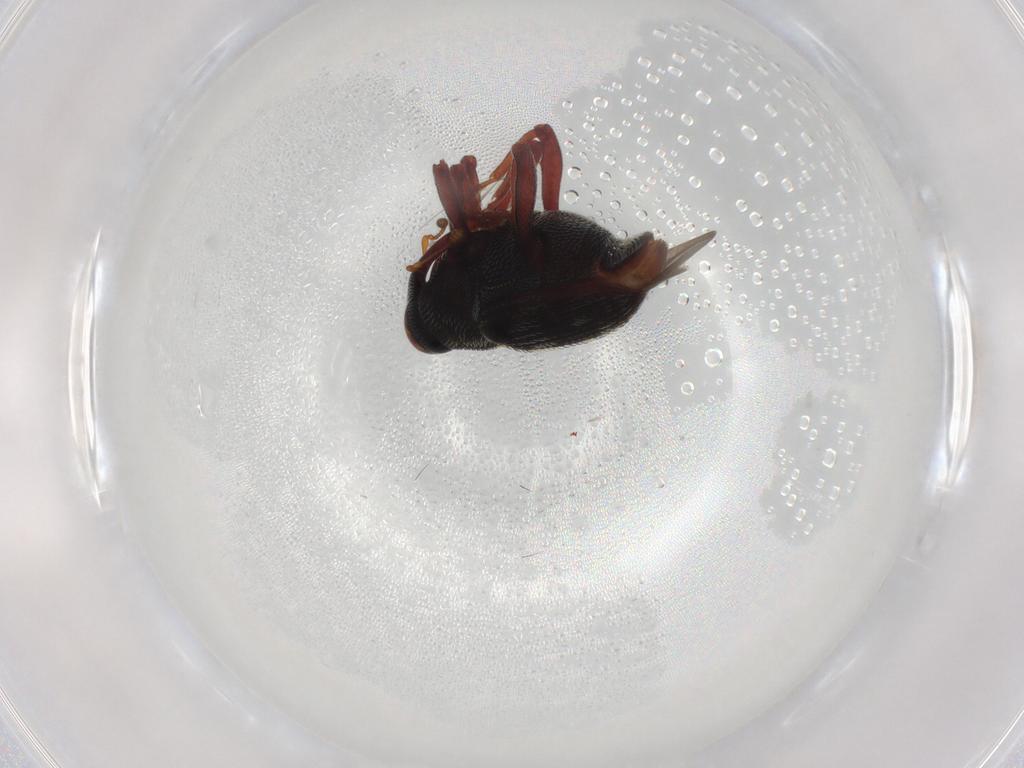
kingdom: Animalia
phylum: Arthropoda
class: Insecta
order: Coleoptera
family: Curculionidae
